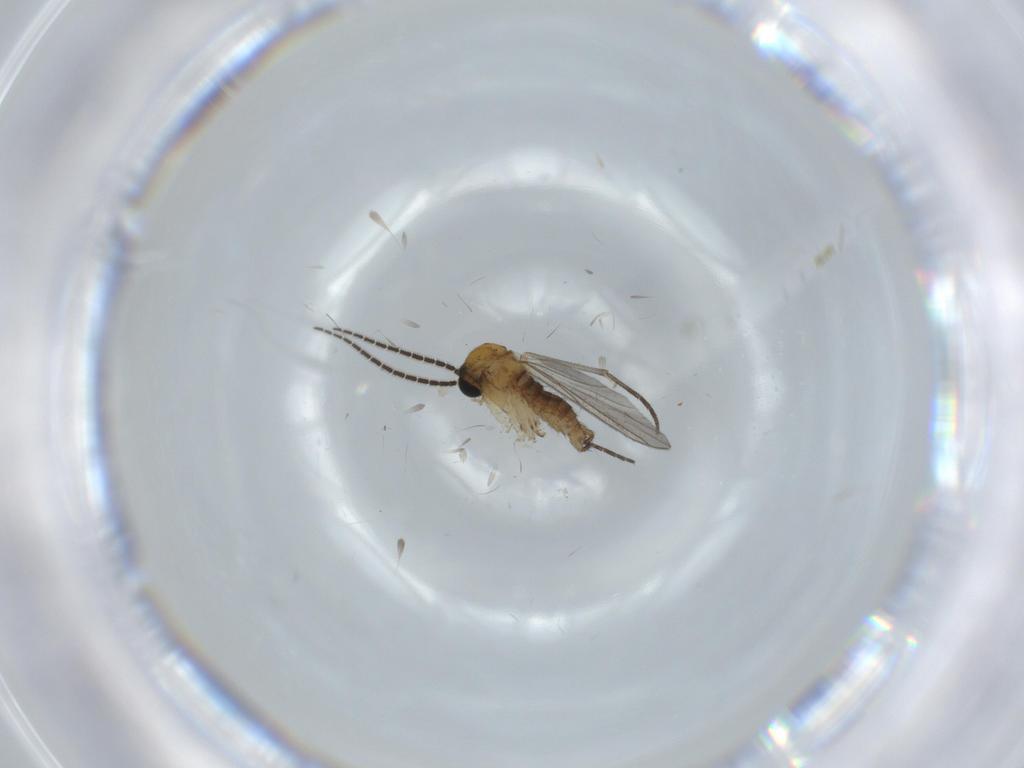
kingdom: Animalia
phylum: Arthropoda
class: Insecta
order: Diptera
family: Sciaridae
